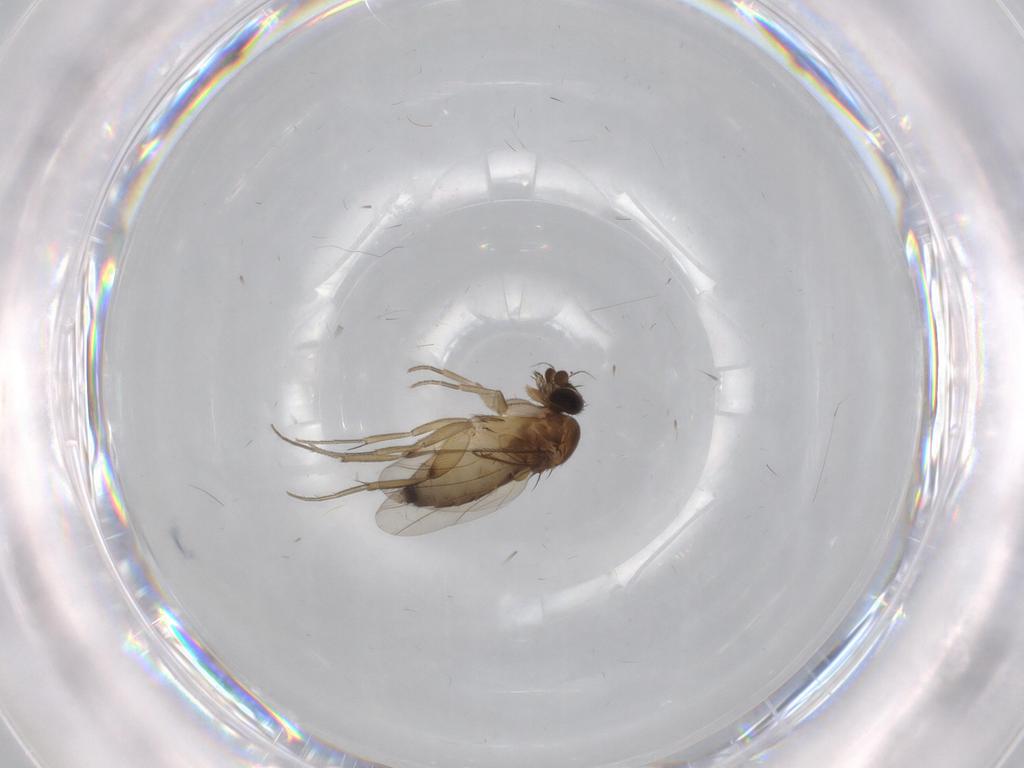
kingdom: Animalia
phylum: Arthropoda
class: Insecta
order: Diptera
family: Phoridae
